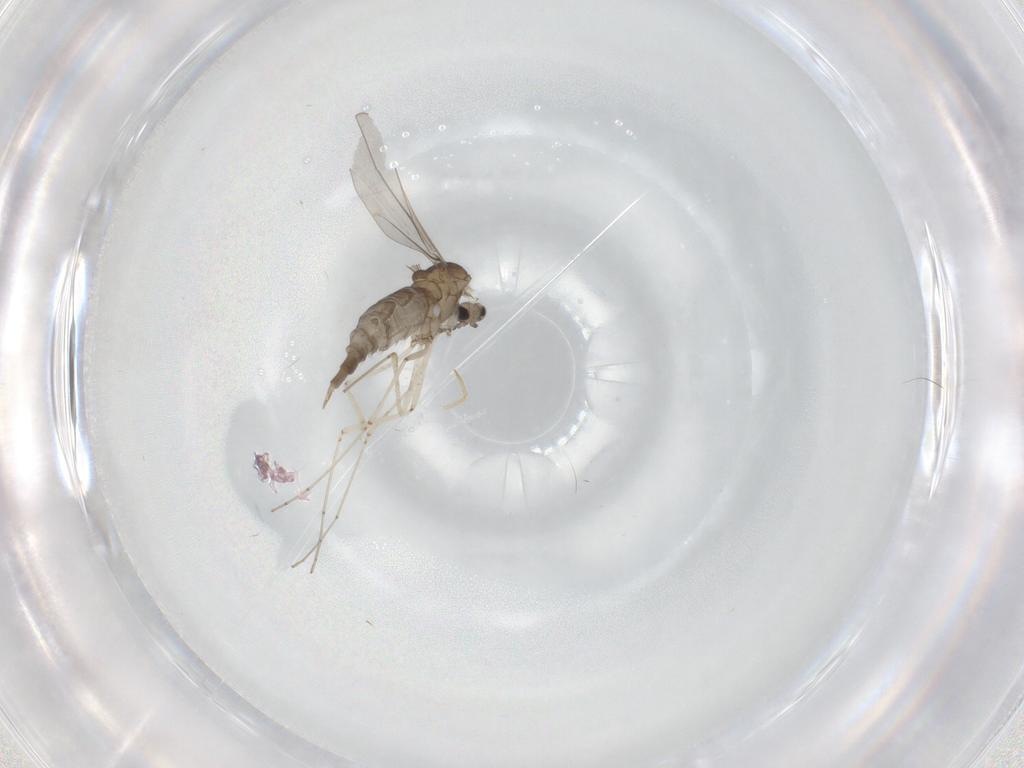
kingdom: Animalia
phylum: Arthropoda
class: Insecta
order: Diptera
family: Cecidomyiidae
